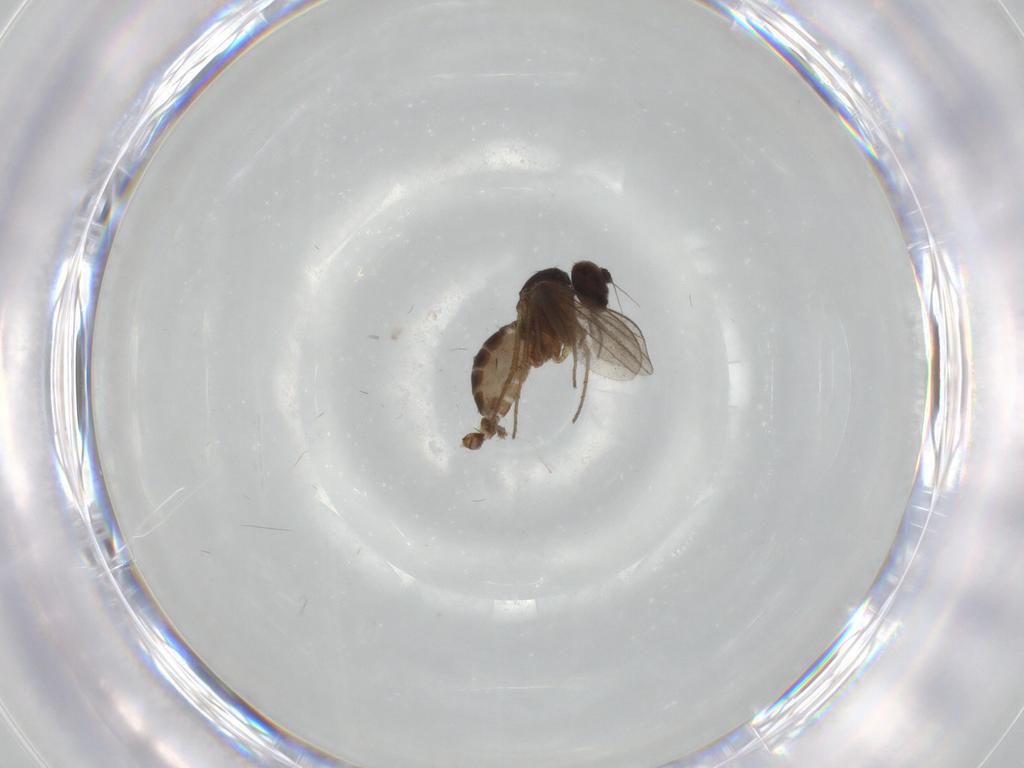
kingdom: Animalia
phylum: Arthropoda
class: Insecta
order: Diptera
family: Dolichopodidae
